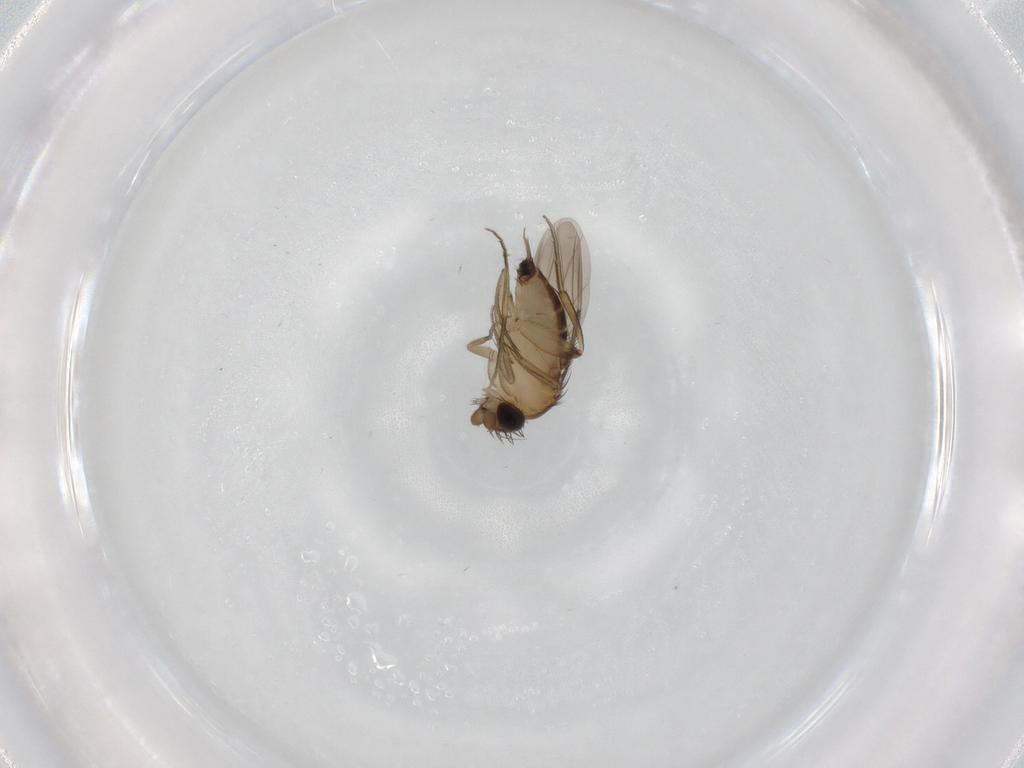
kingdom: Animalia
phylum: Arthropoda
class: Insecta
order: Diptera
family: Phoridae
